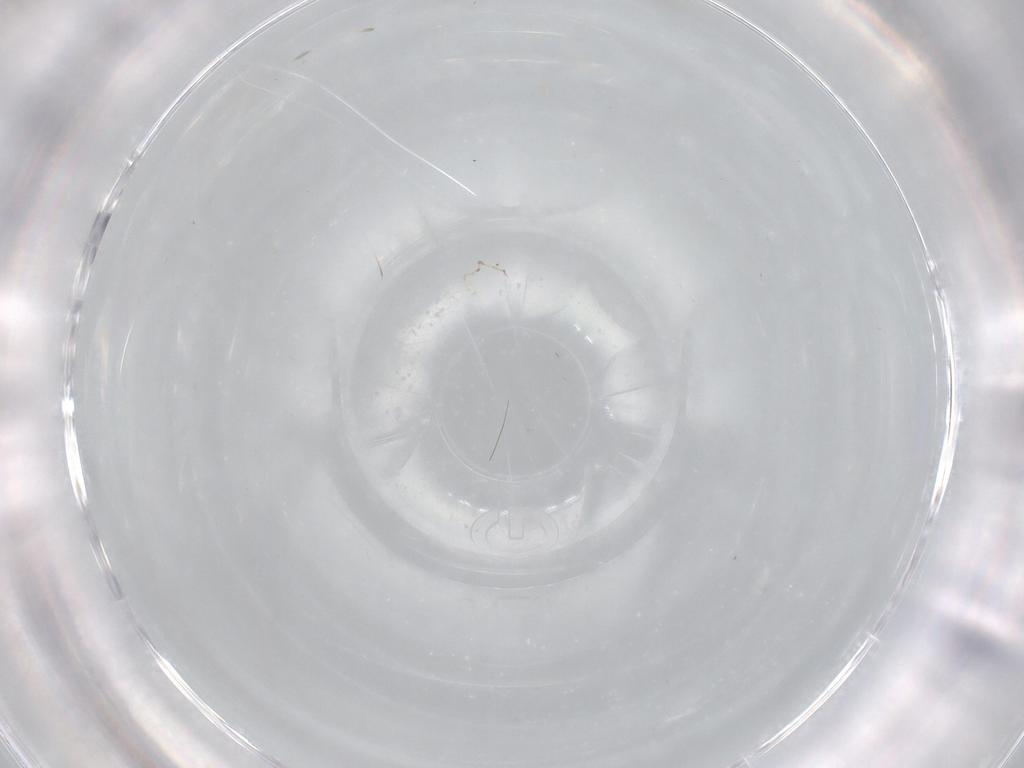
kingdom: Animalia
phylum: Arthropoda
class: Insecta
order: Diptera
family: Cecidomyiidae
